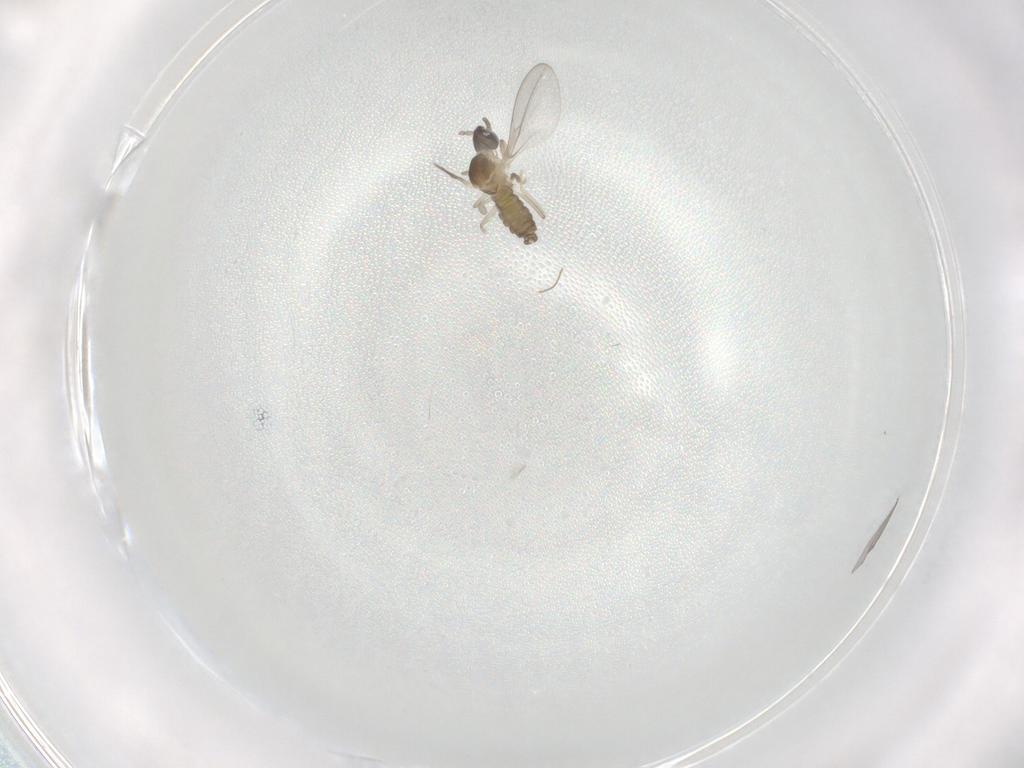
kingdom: Animalia
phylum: Arthropoda
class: Insecta
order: Diptera
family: Cecidomyiidae
